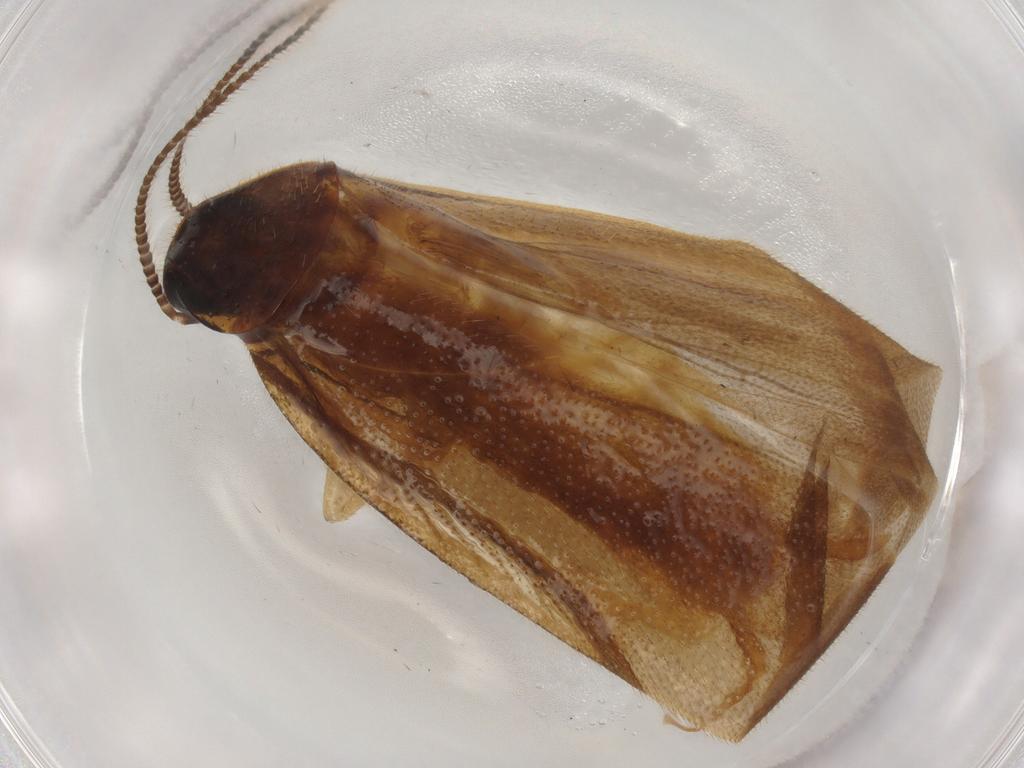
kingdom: Animalia
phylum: Arthropoda
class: Insecta
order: Blattodea
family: Ectobiidae
